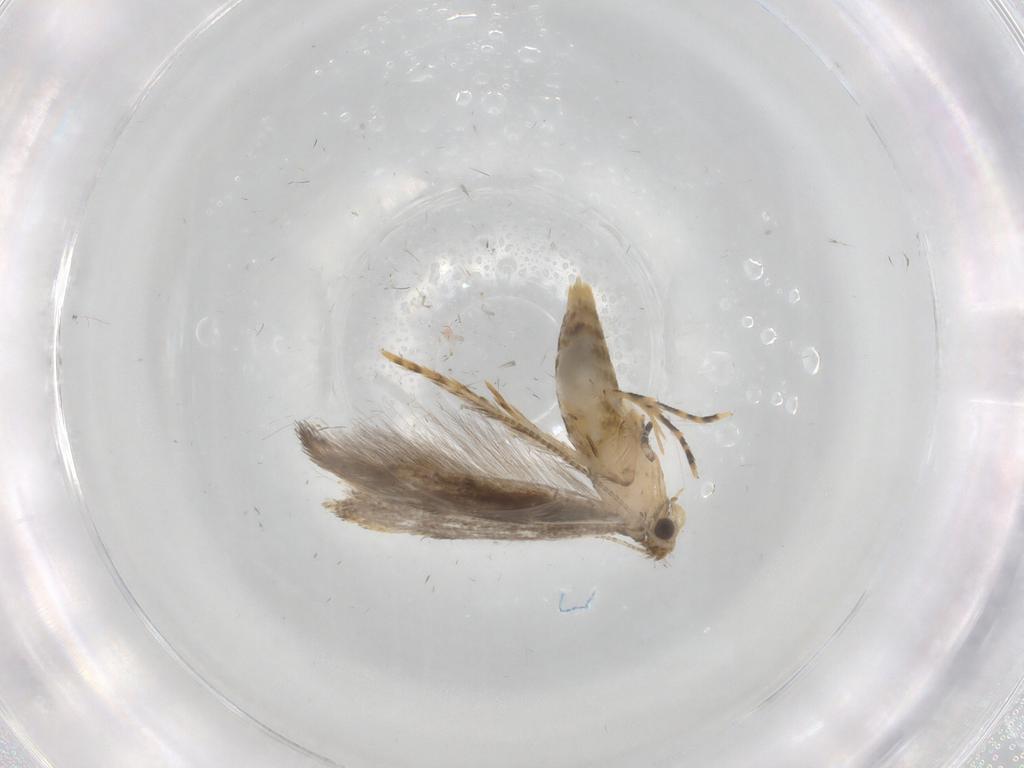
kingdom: Animalia
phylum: Arthropoda
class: Insecta
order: Lepidoptera
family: Tineidae
